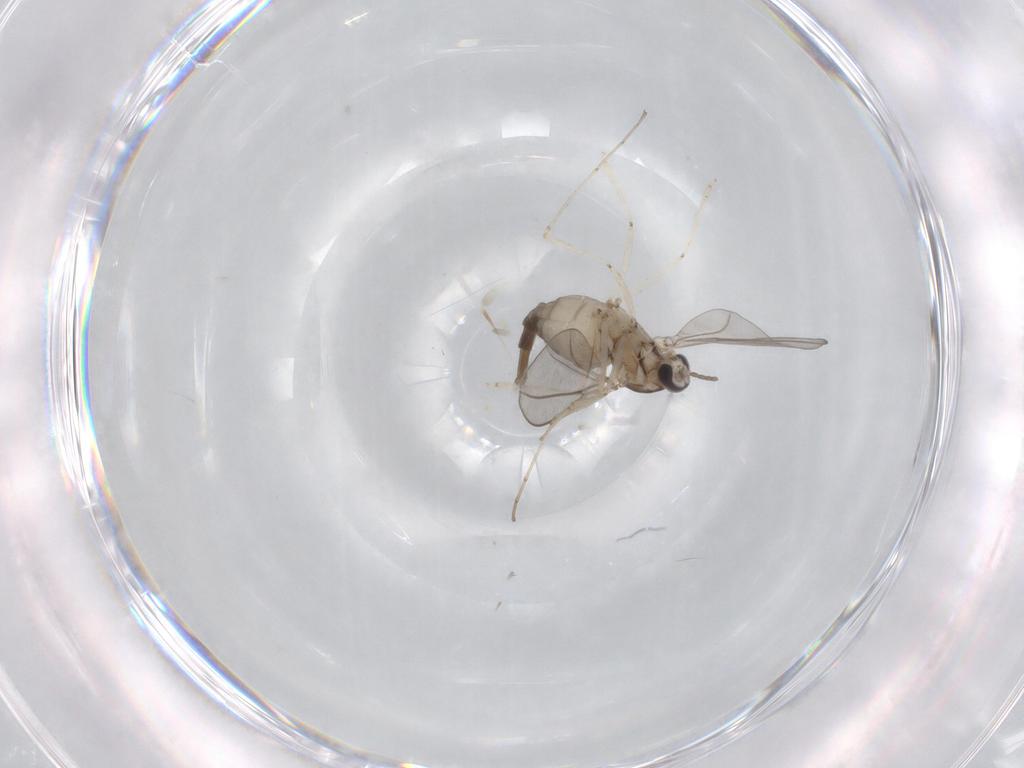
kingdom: Animalia
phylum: Arthropoda
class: Insecta
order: Diptera
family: Cecidomyiidae
